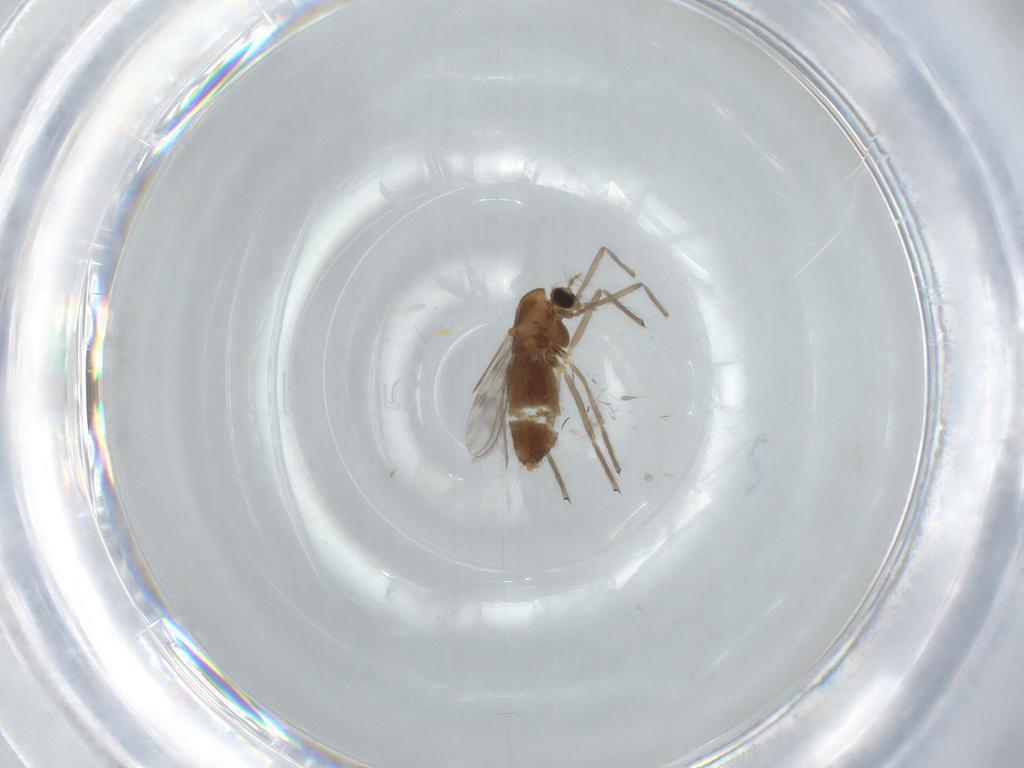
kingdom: Animalia
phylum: Arthropoda
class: Insecta
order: Diptera
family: Chironomidae
